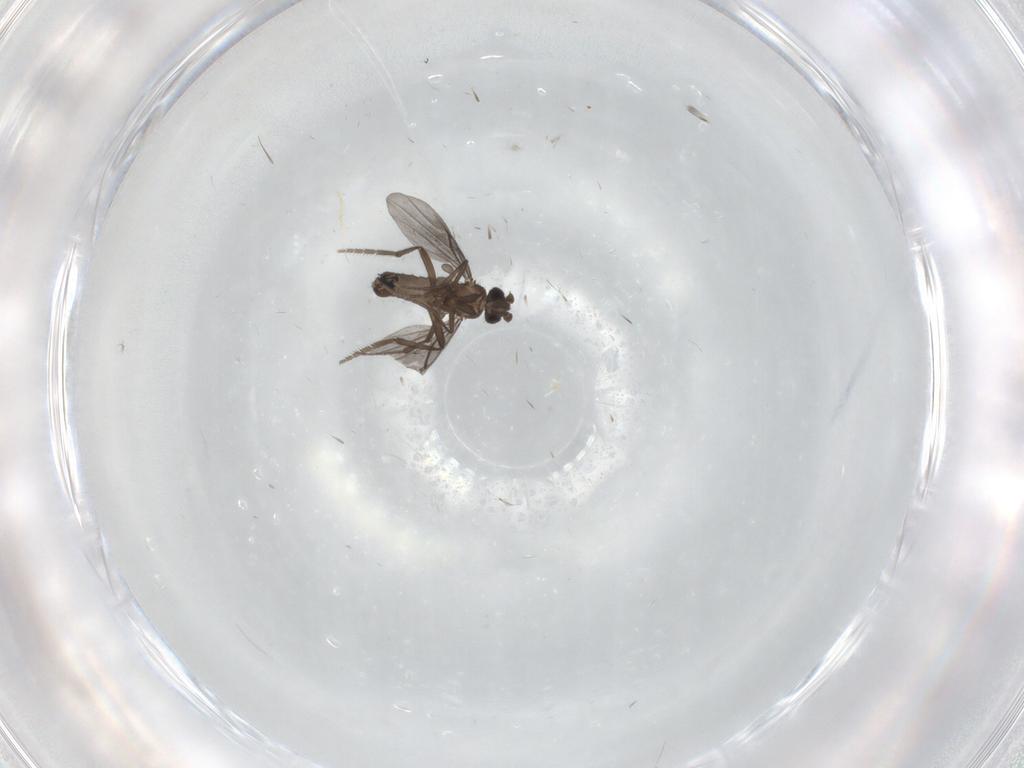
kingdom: Animalia
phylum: Arthropoda
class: Insecta
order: Diptera
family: Phoridae
